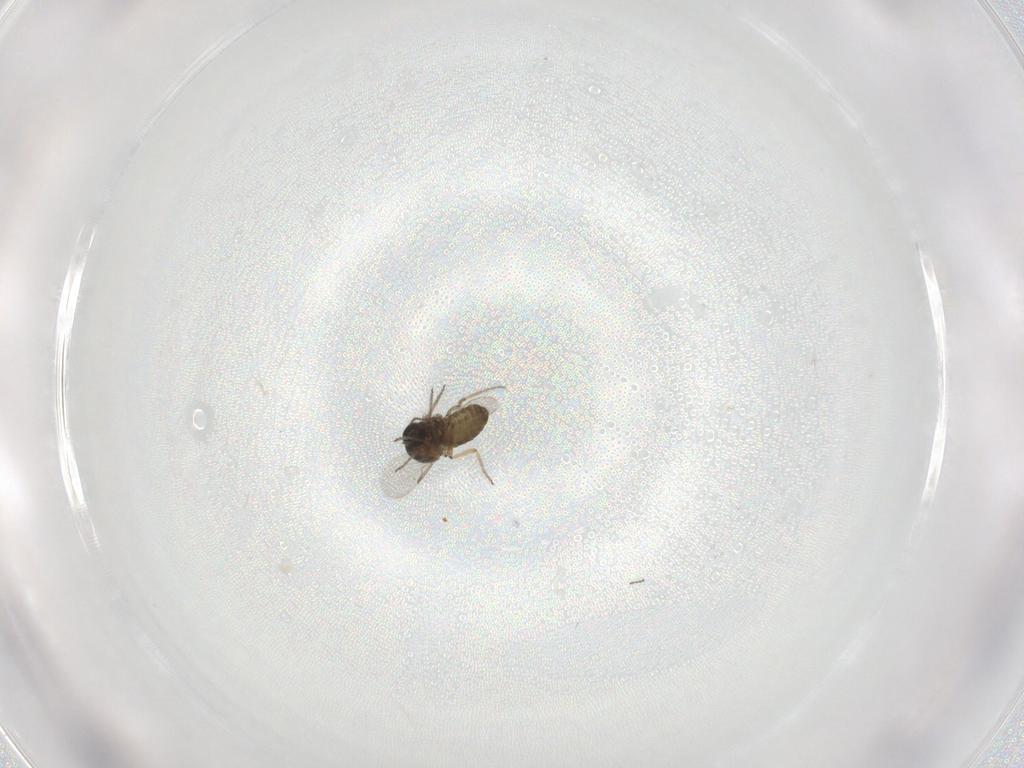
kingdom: Animalia
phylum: Arthropoda
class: Insecta
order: Diptera
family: Ceratopogonidae
